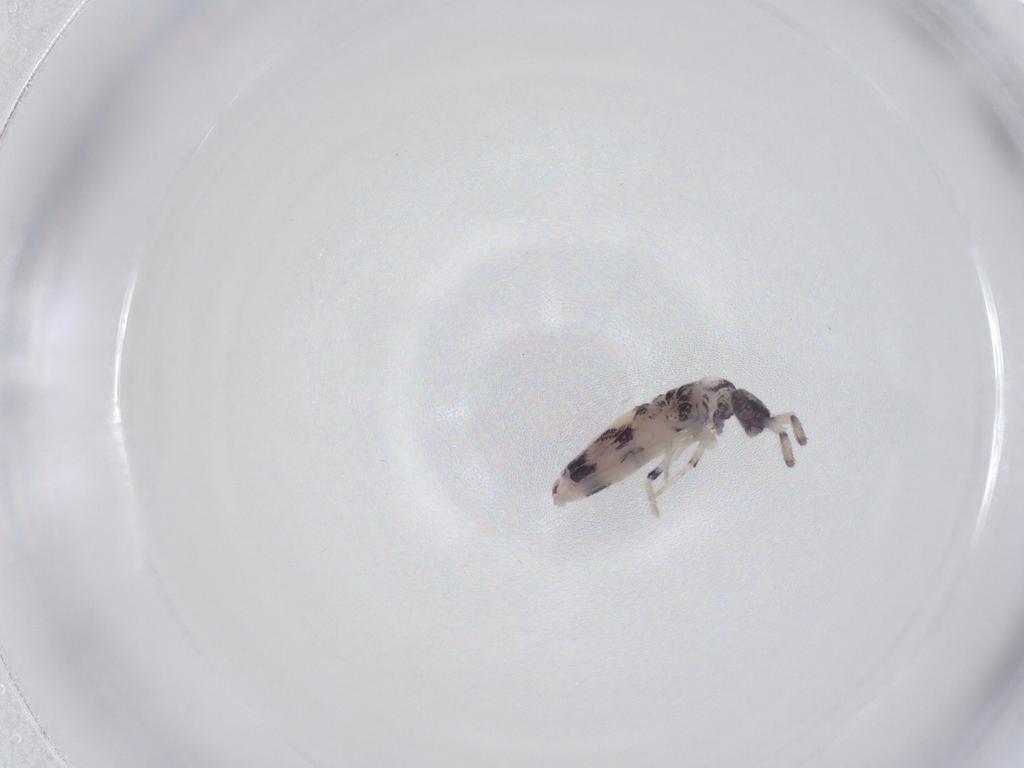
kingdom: Animalia
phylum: Arthropoda
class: Collembola
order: Entomobryomorpha
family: Entomobryidae
